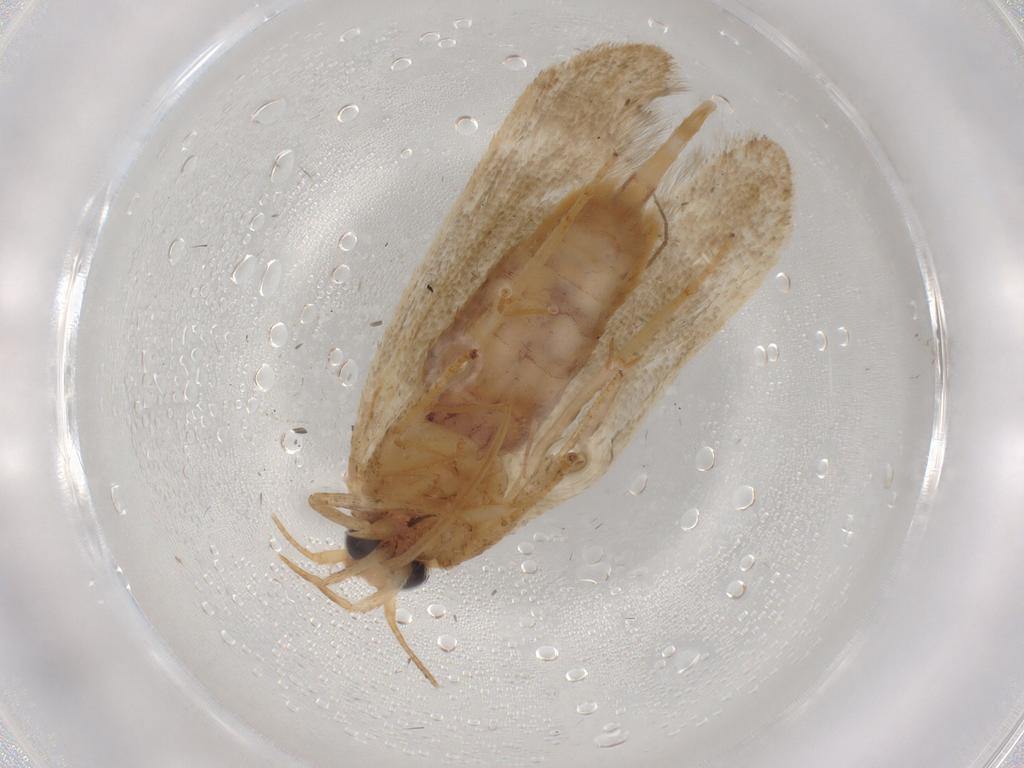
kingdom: Animalia
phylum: Arthropoda
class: Insecta
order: Lepidoptera
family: Blastobasidae
